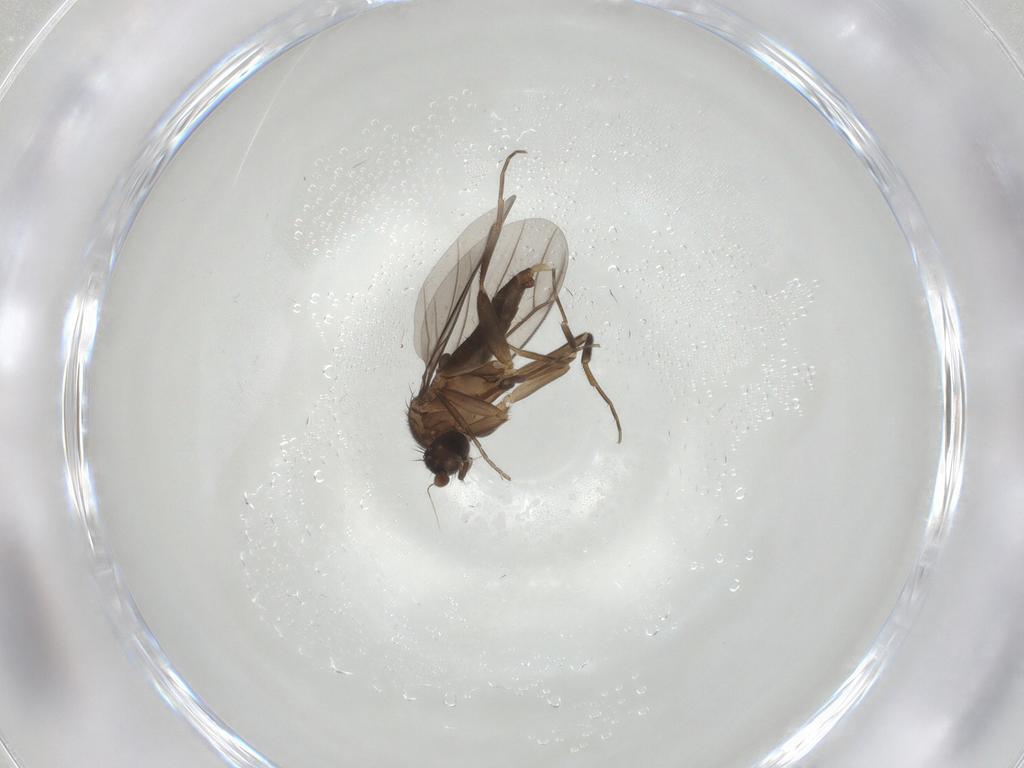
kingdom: Animalia
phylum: Arthropoda
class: Insecta
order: Diptera
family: Phoridae
